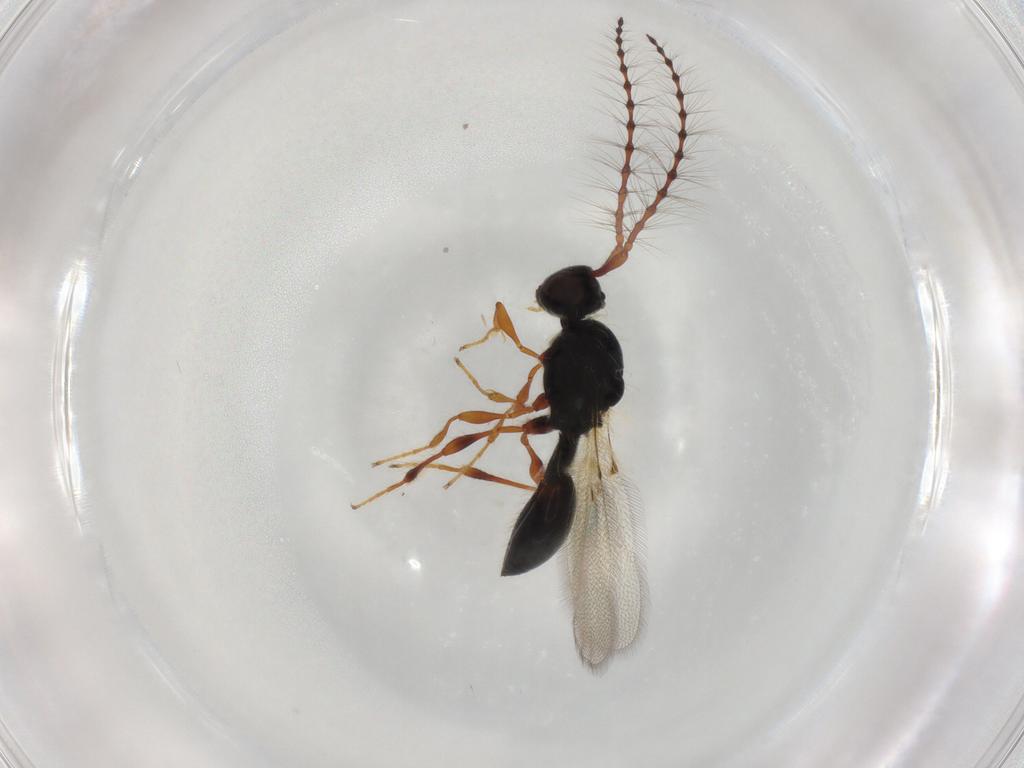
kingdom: Animalia
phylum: Arthropoda
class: Insecta
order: Hymenoptera
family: Diapriidae
